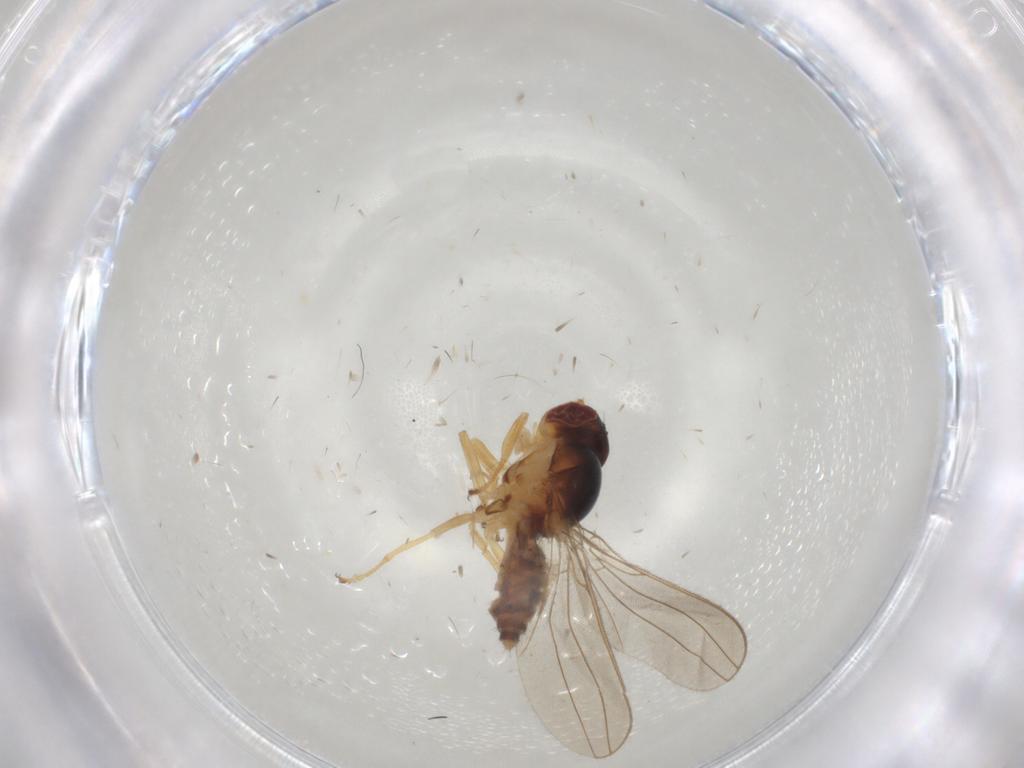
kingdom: Animalia
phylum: Arthropoda
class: Insecta
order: Diptera
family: Asteiidae
